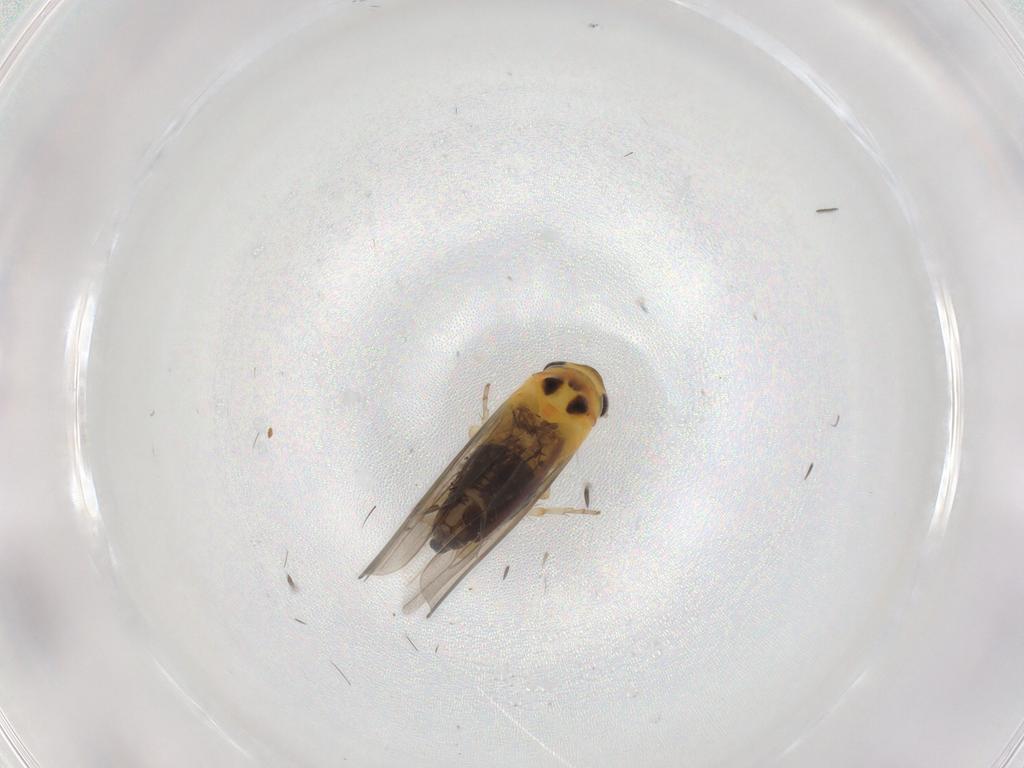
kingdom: Animalia
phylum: Arthropoda
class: Insecta
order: Hemiptera
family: Cicadellidae
